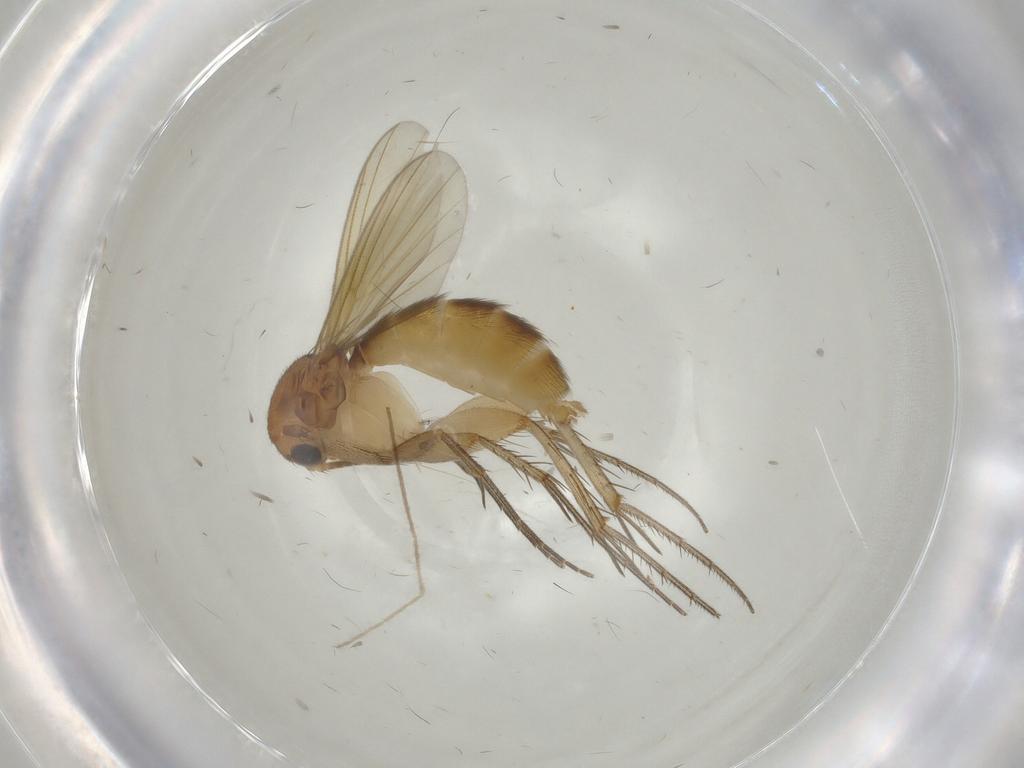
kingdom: Animalia
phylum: Arthropoda
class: Insecta
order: Diptera
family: Mycetophilidae
